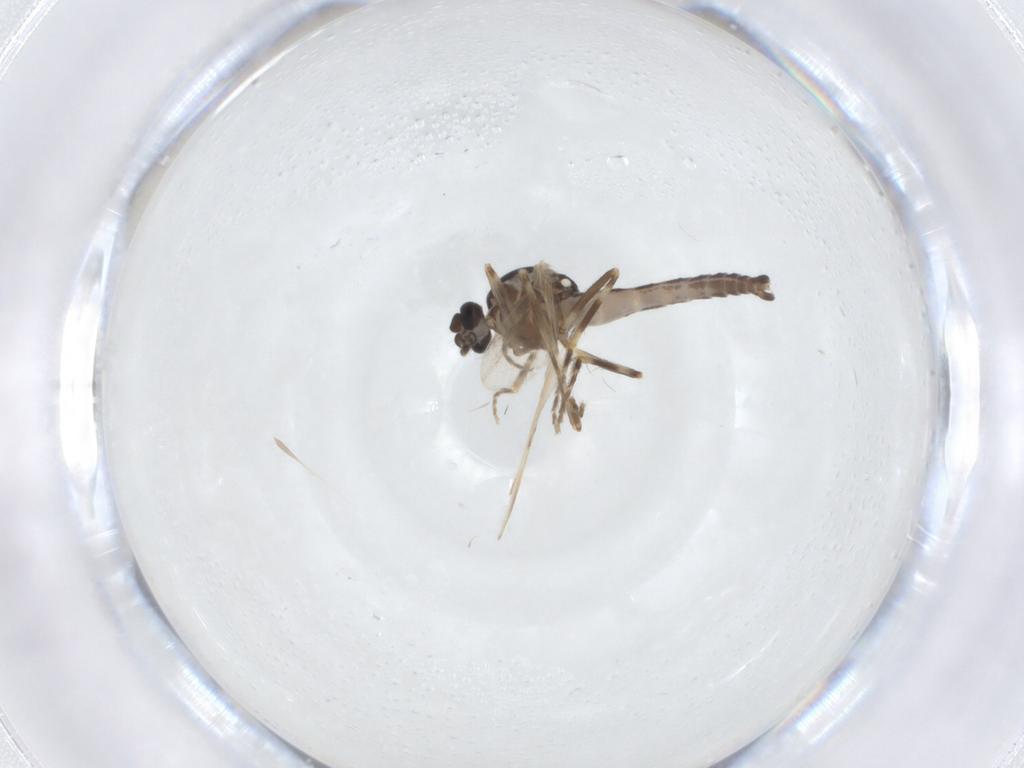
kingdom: Animalia
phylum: Arthropoda
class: Insecta
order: Diptera
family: Ceratopogonidae
